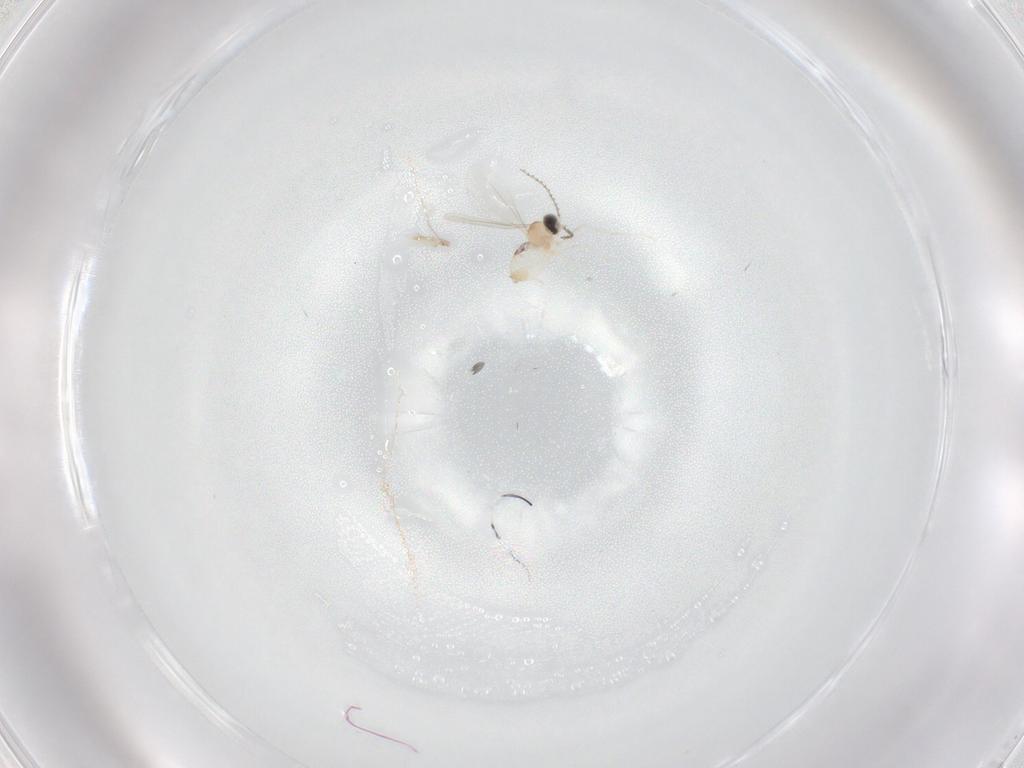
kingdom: Animalia
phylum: Arthropoda
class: Insecta
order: Diptera
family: Cecidomyiidae
